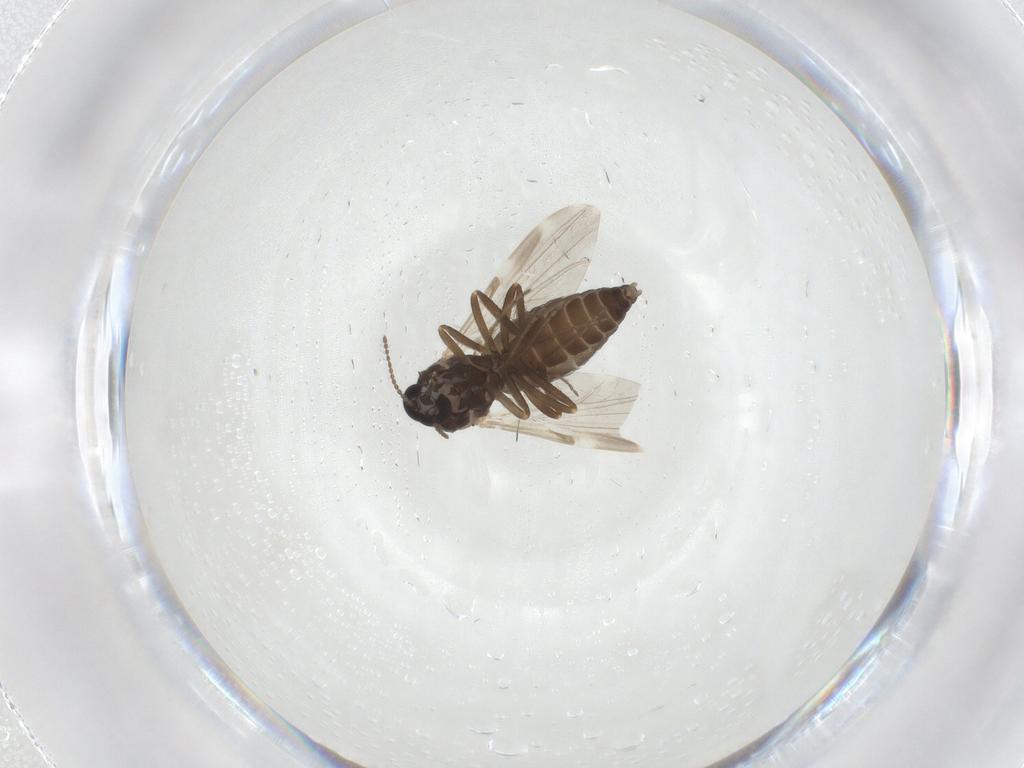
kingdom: Animalia
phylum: Arthropoda
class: Insecta
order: Diptera
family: Ceratopogonidae
